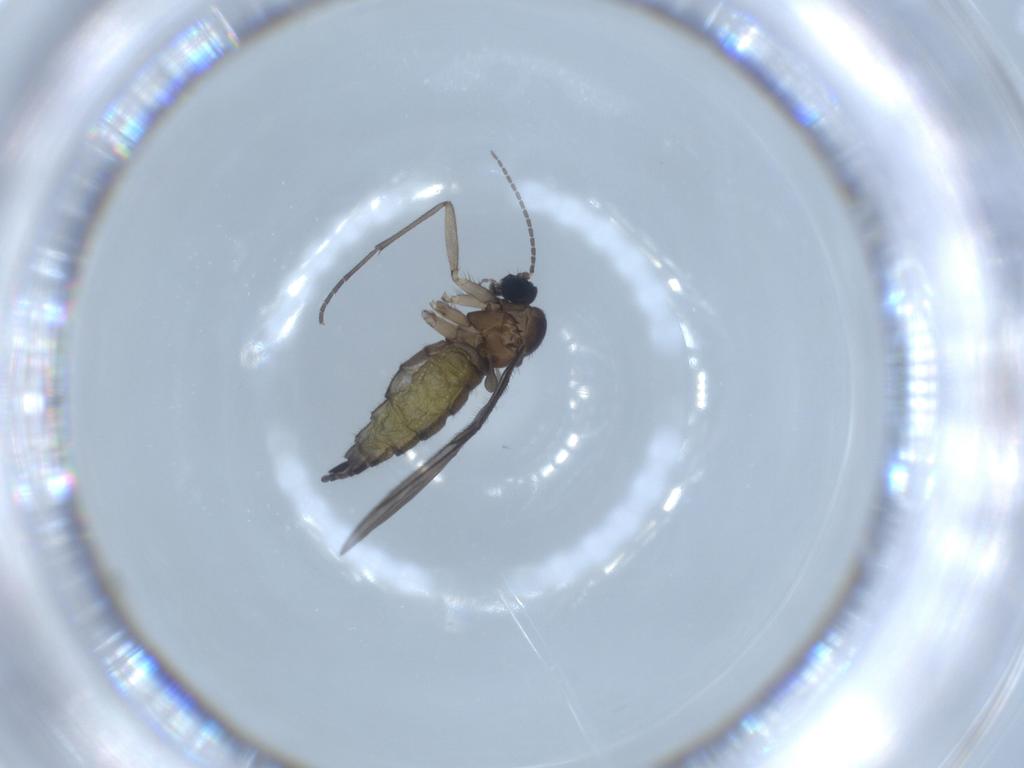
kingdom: Animalia
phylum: Arthropoda
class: Insecta
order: Diptera
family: Sciaridae
